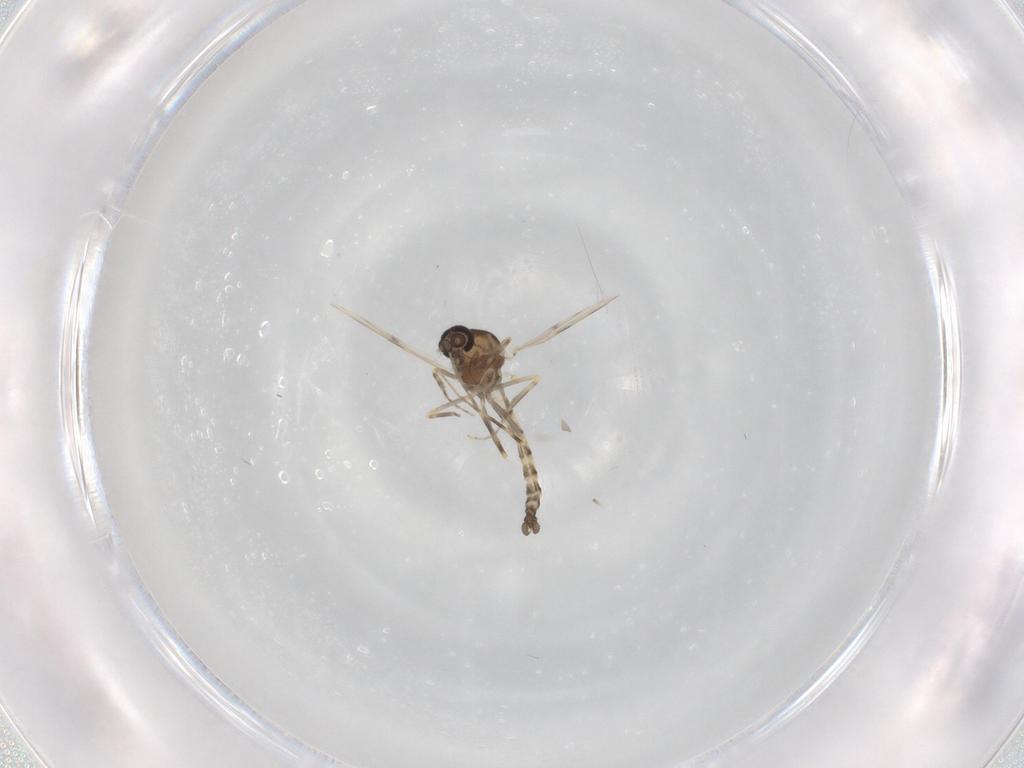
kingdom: Animalia
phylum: Arthropoda
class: Insecta
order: Diptera
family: Ceratopogonidae
